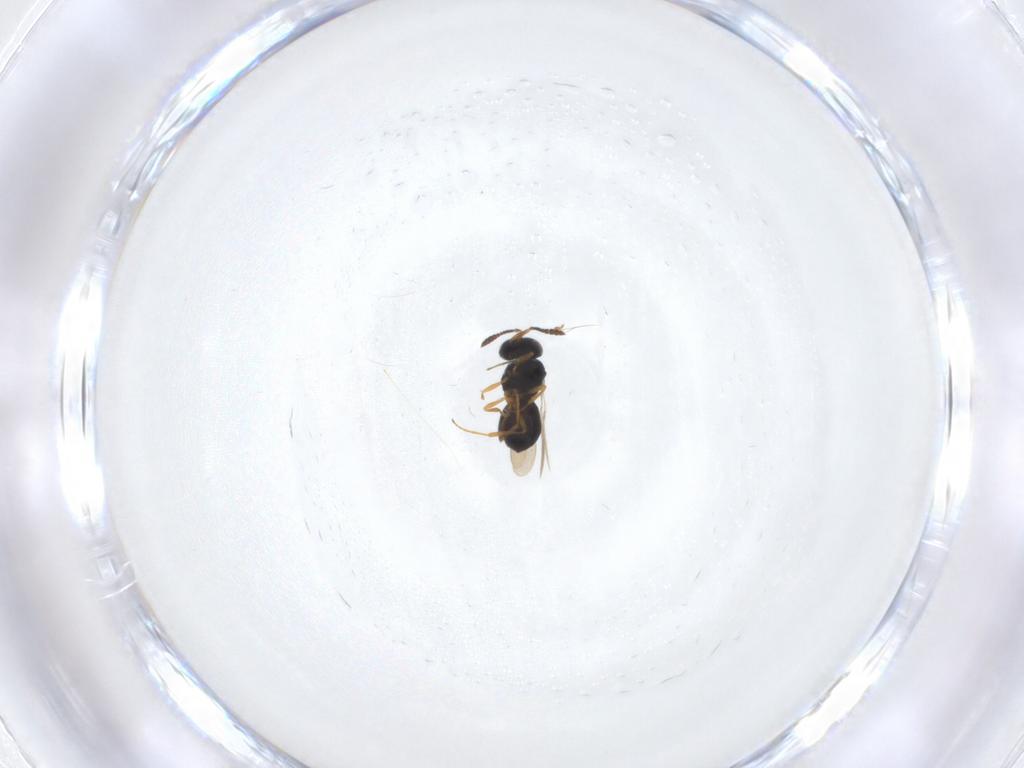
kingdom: Animalia
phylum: Arthropoda
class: Insecta
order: Hymenoptera
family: Scelionidae
